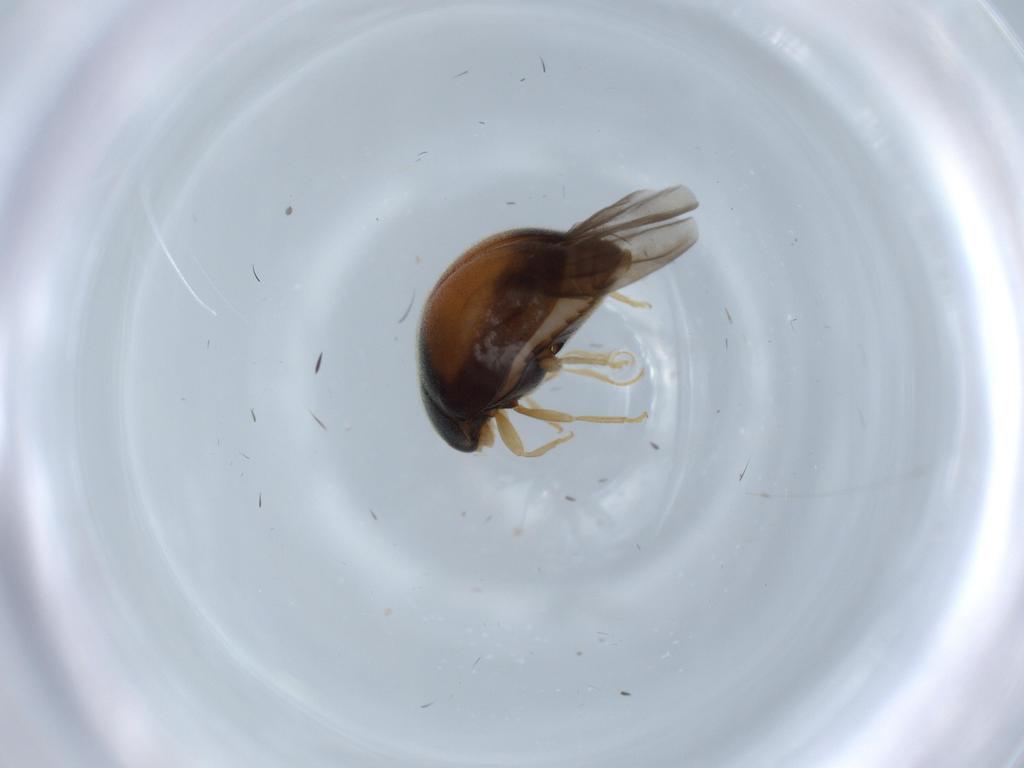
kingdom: Animalia
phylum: Arthropoda
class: Insecta
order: Coleoptera
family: Coccinellidae
